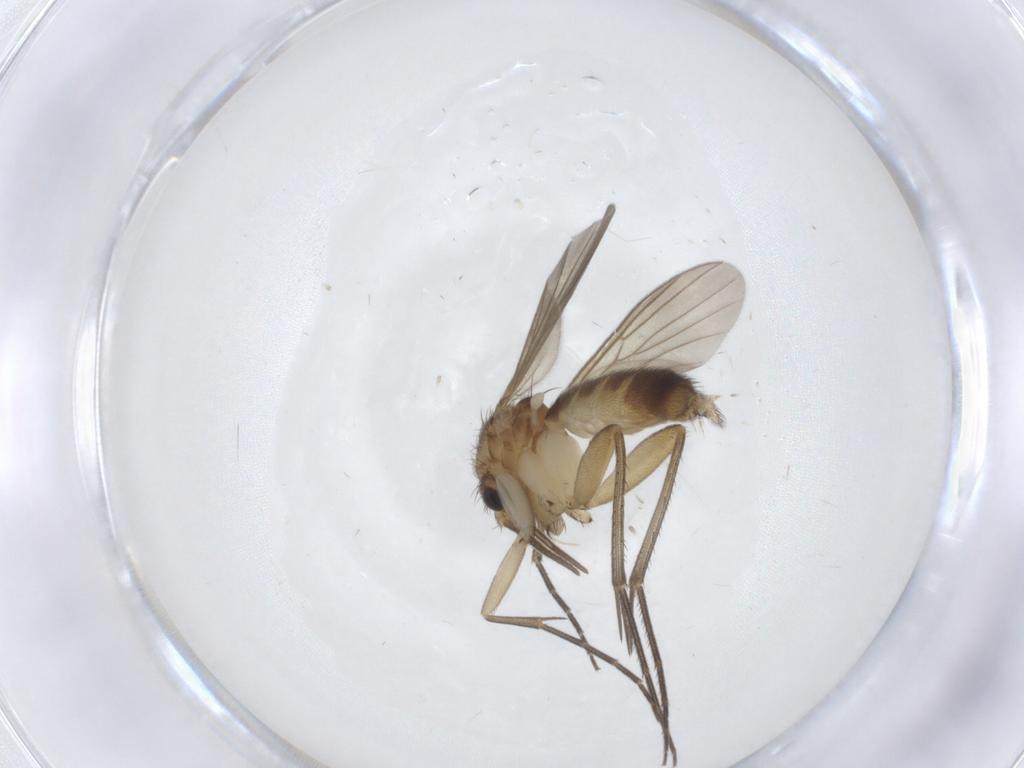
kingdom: Animalia
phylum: Arthropoda
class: Insecta
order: Diptera
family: Mycetophilidae
